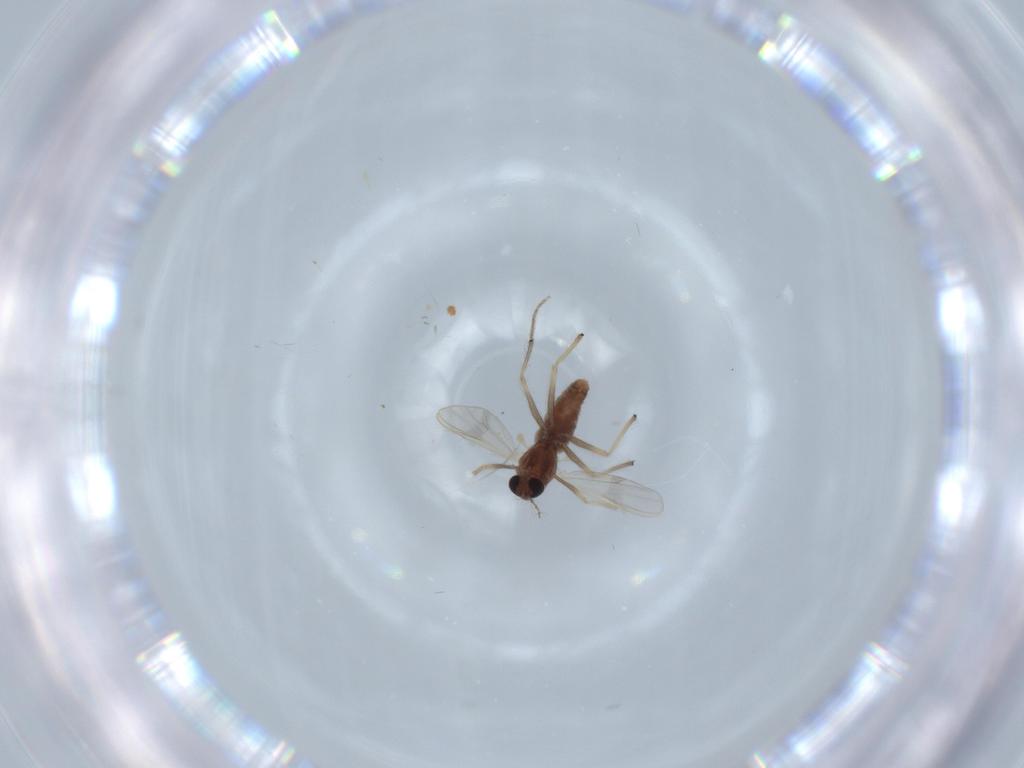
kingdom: Animalia
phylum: Arthropoda
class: Insecta
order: Diptera
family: Chironomidae
